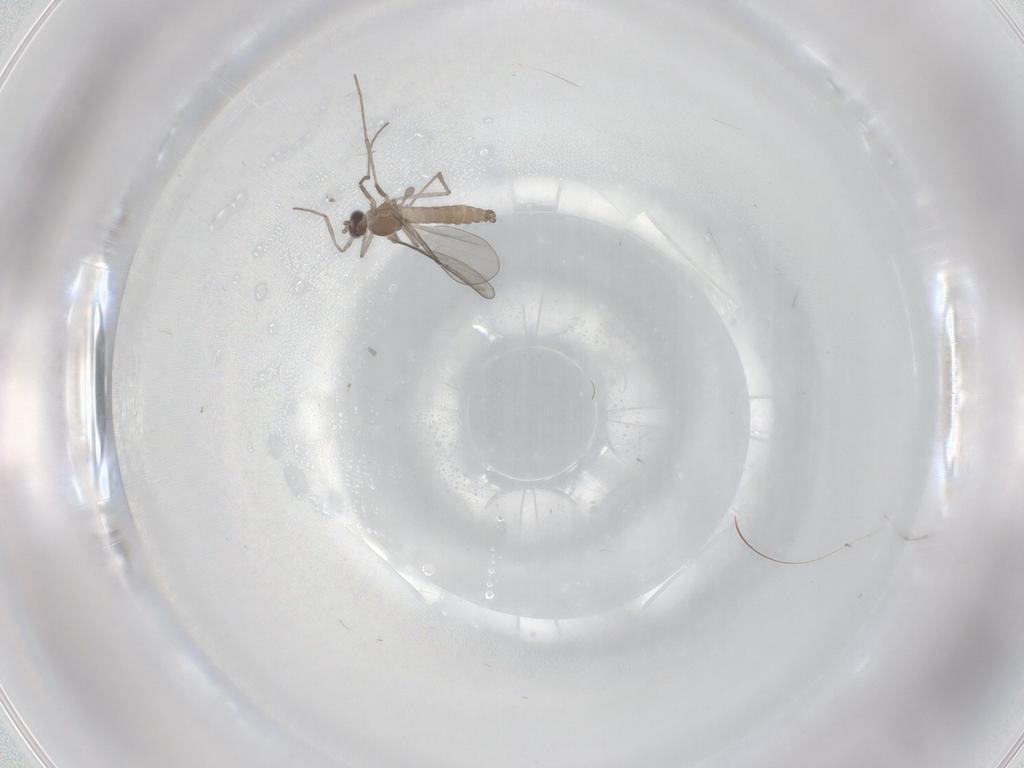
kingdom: Animalia
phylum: Arthropoda
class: Insecta
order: Diptera
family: Cecidomyiidae
